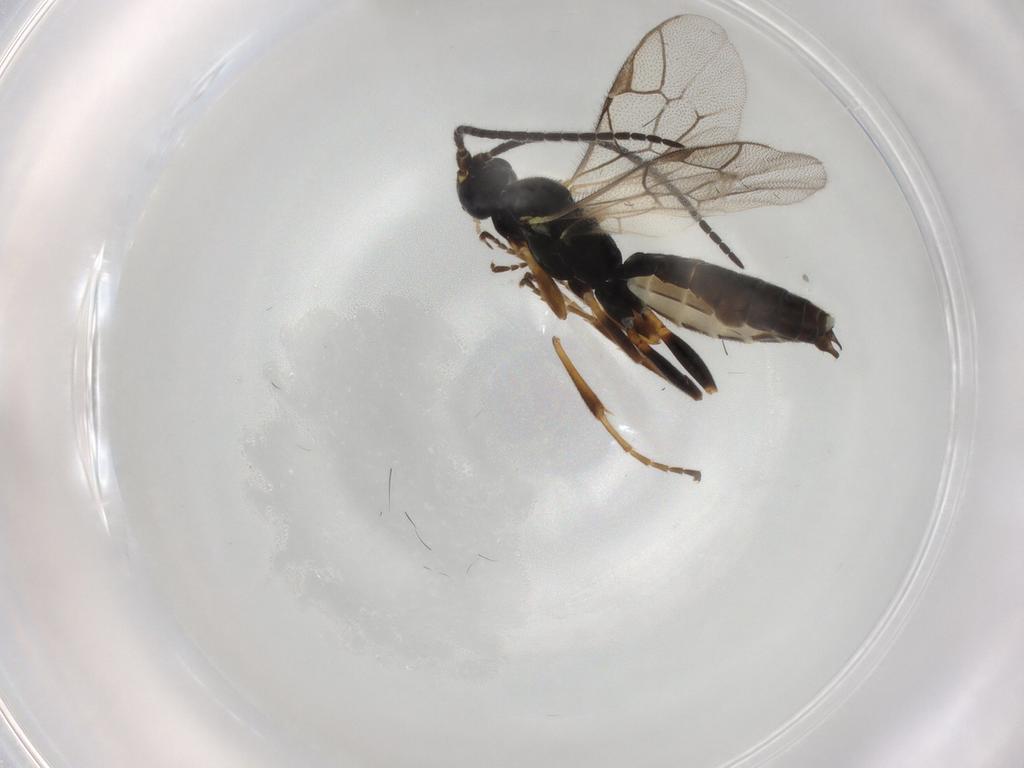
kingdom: Animalia
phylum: Arthropoda
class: Insecta
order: Hymenoptera
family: Ichneumonidae
